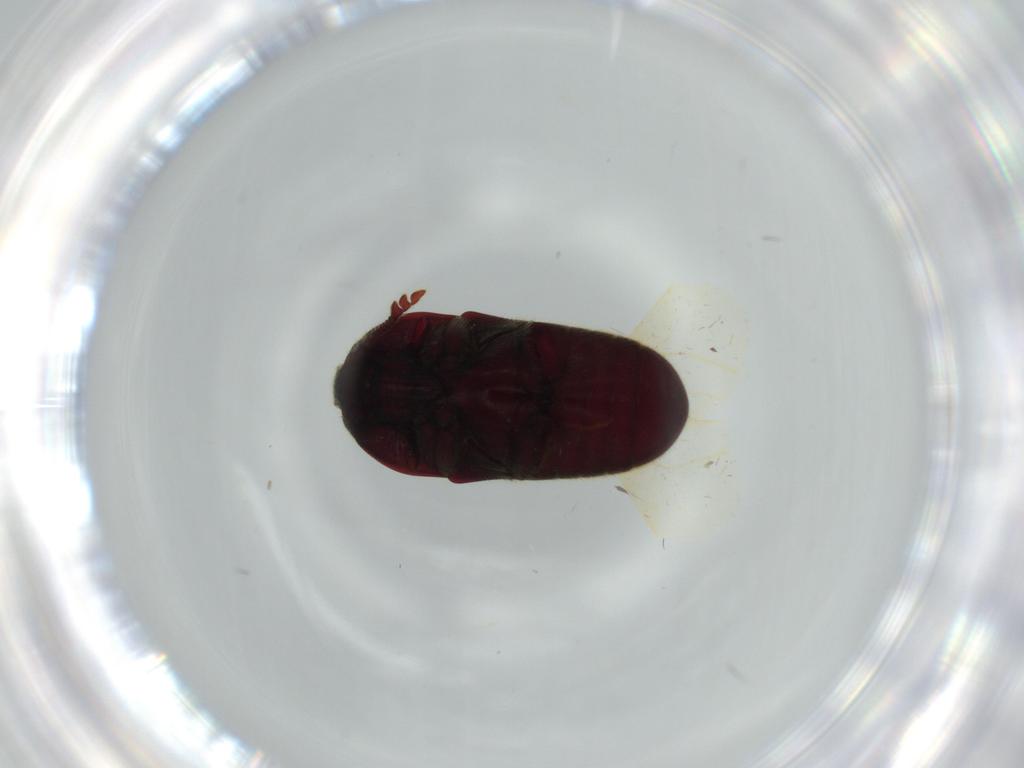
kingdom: Animalia
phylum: Arthropoda
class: Insecta
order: Coleoptera
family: Throscidae
